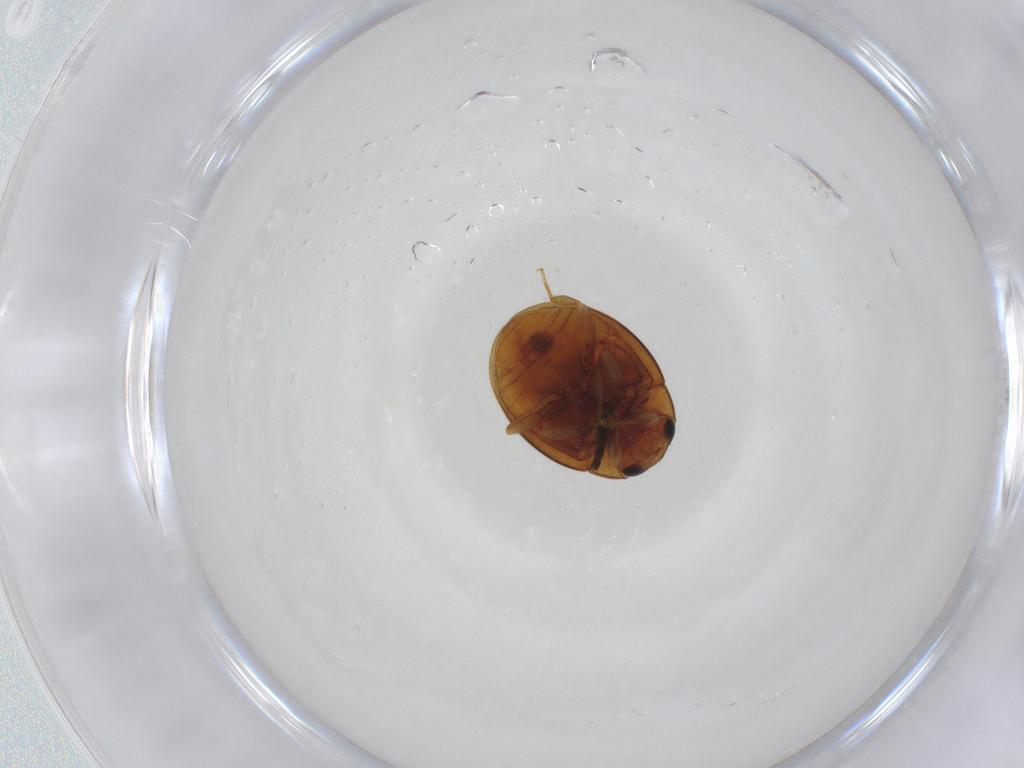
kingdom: Animalia
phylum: Arthropoda
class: Insecta
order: Coleoptera
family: Coccinellidae
